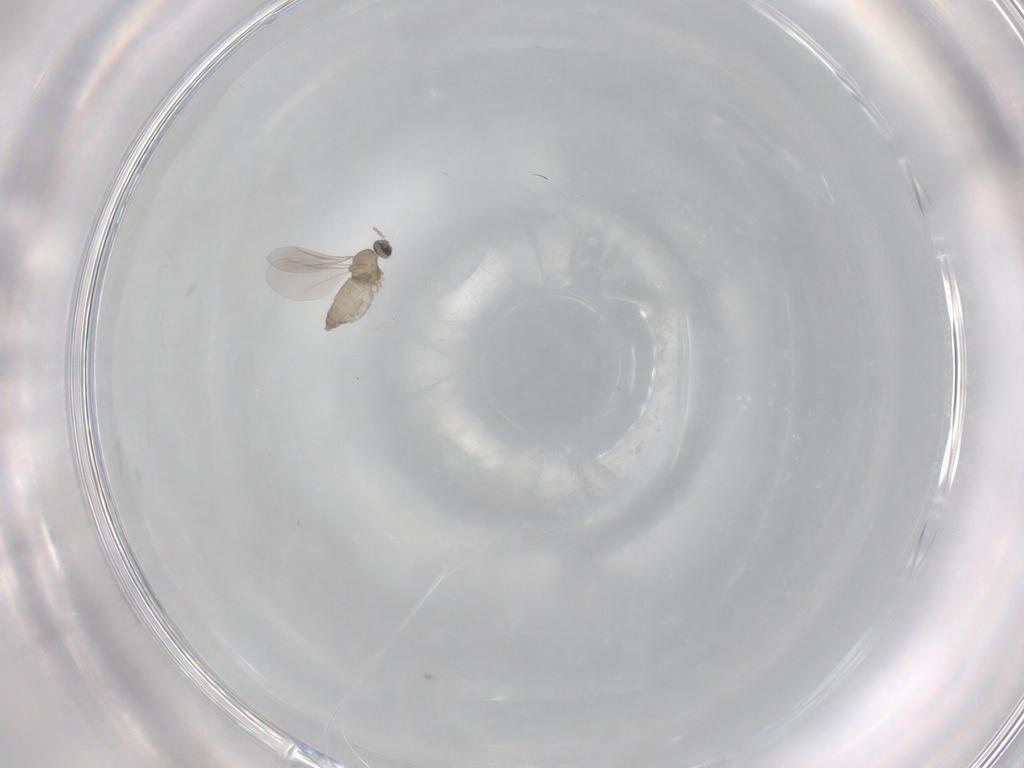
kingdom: Animalia
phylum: Arthropoda
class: Insecta
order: Diptera
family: Cecidomyiidae
